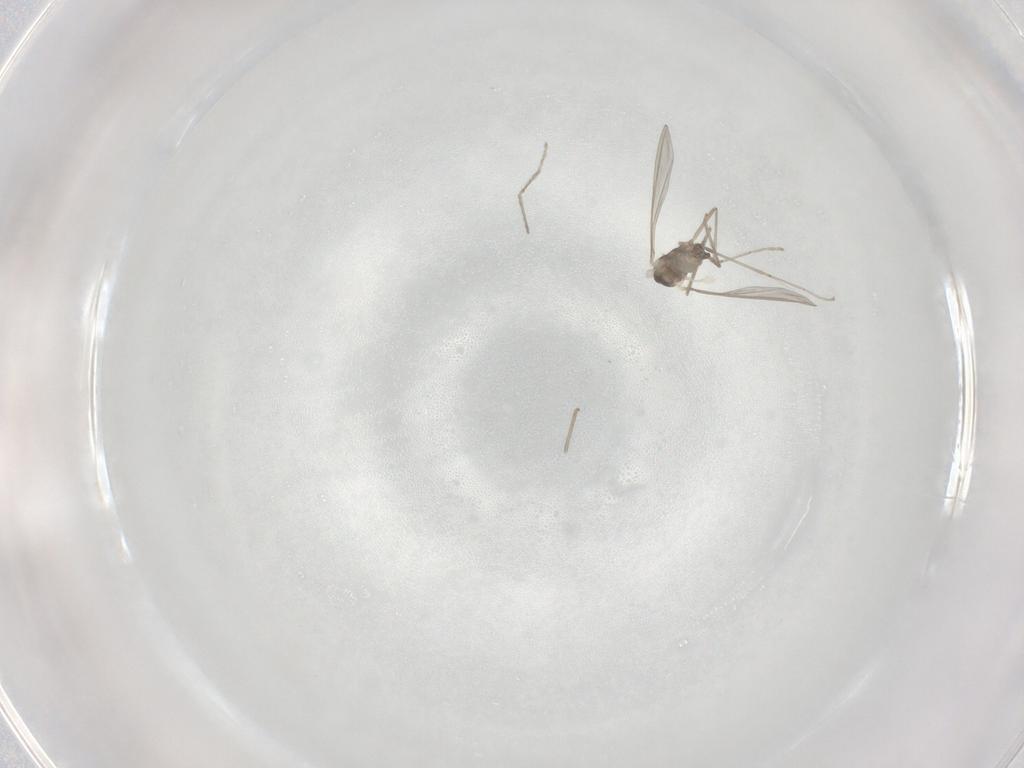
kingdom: Animalia
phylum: Arthropoda
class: Insecta
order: Diptera
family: Cecidomyiidae
